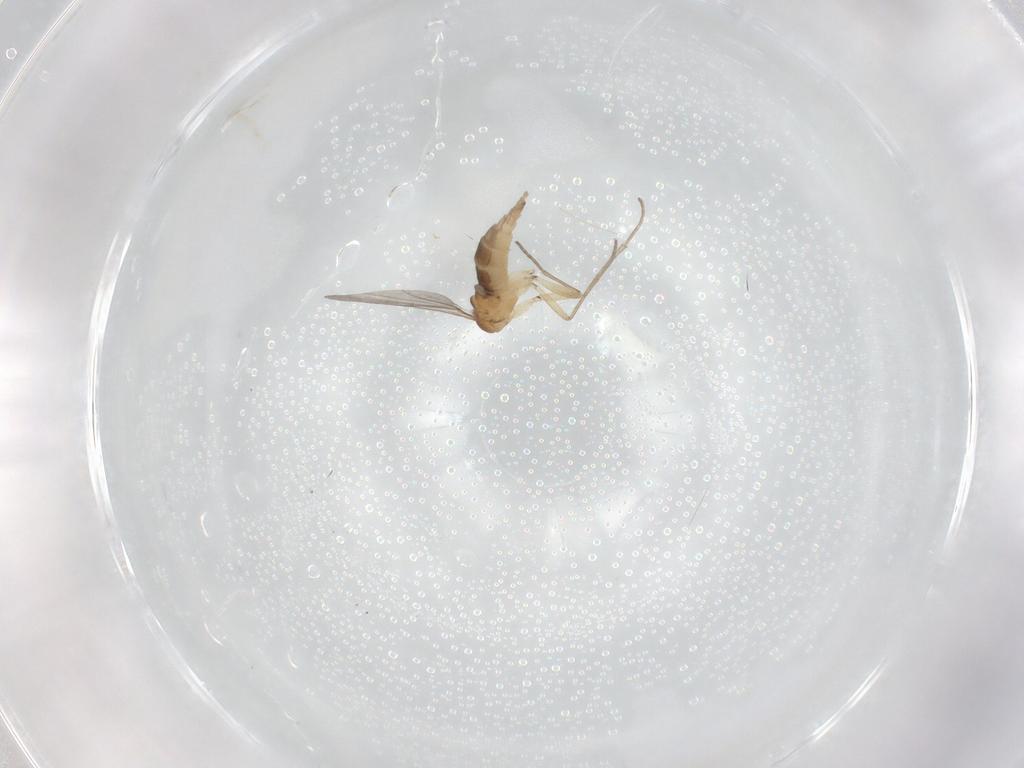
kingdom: Animalia
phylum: Arthropoda
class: Insecta
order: Diptera
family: Sciaridae
